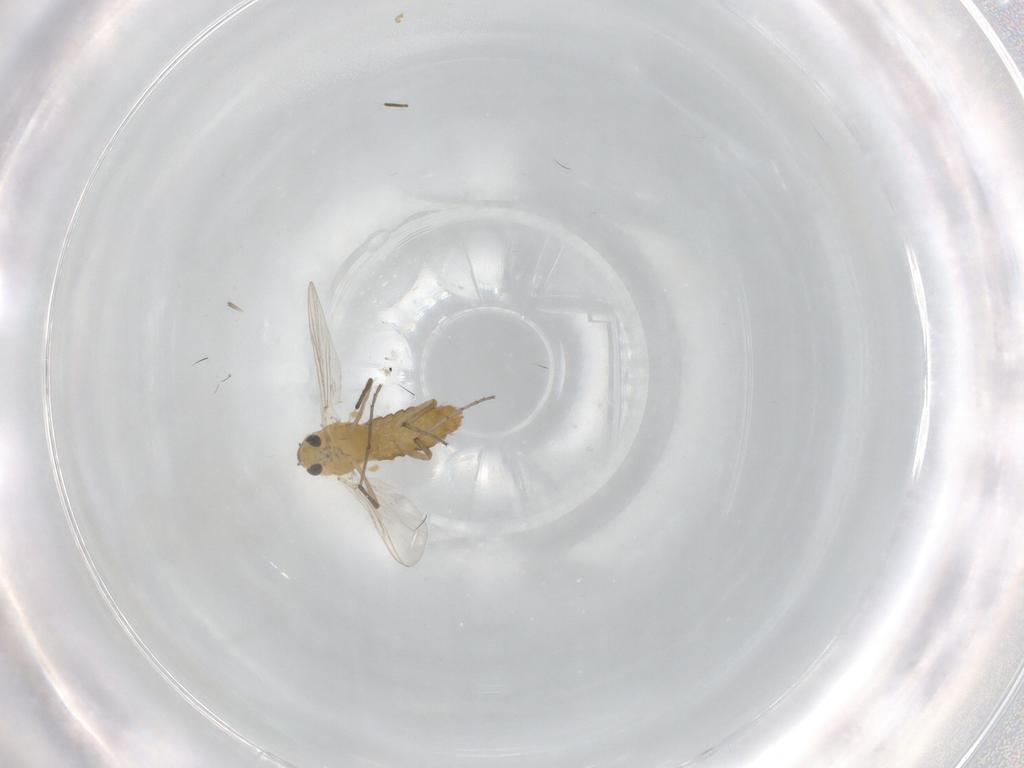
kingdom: Animalia
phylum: Arthropoda
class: Insecta
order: Diptera
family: Chironomidae
